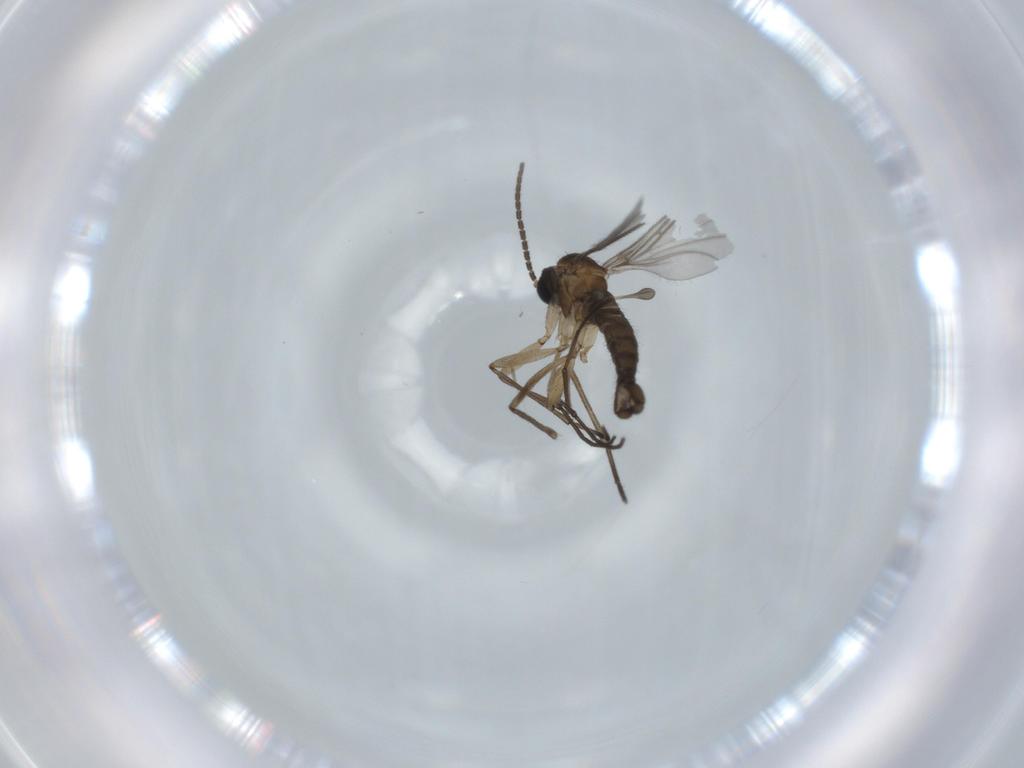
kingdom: Animalia
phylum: Arthropoda
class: Insecta
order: Diptera
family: Sciaridae
